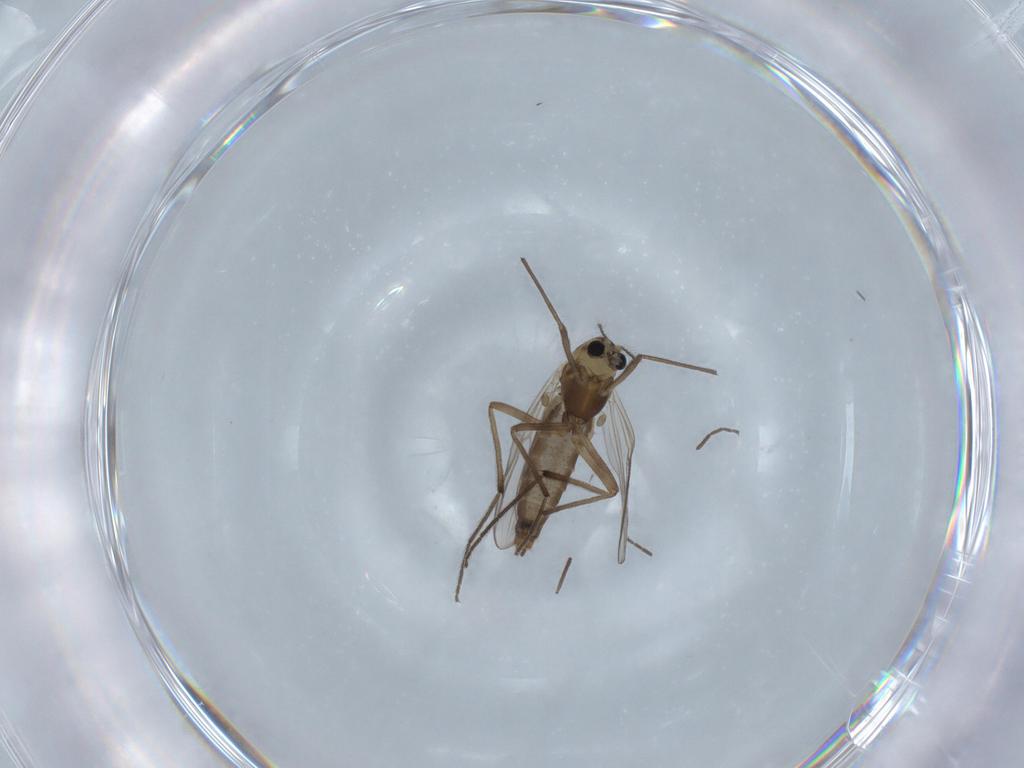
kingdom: Animalia
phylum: Arthropoda
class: Insecta
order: Diptera
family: Chironomidae
